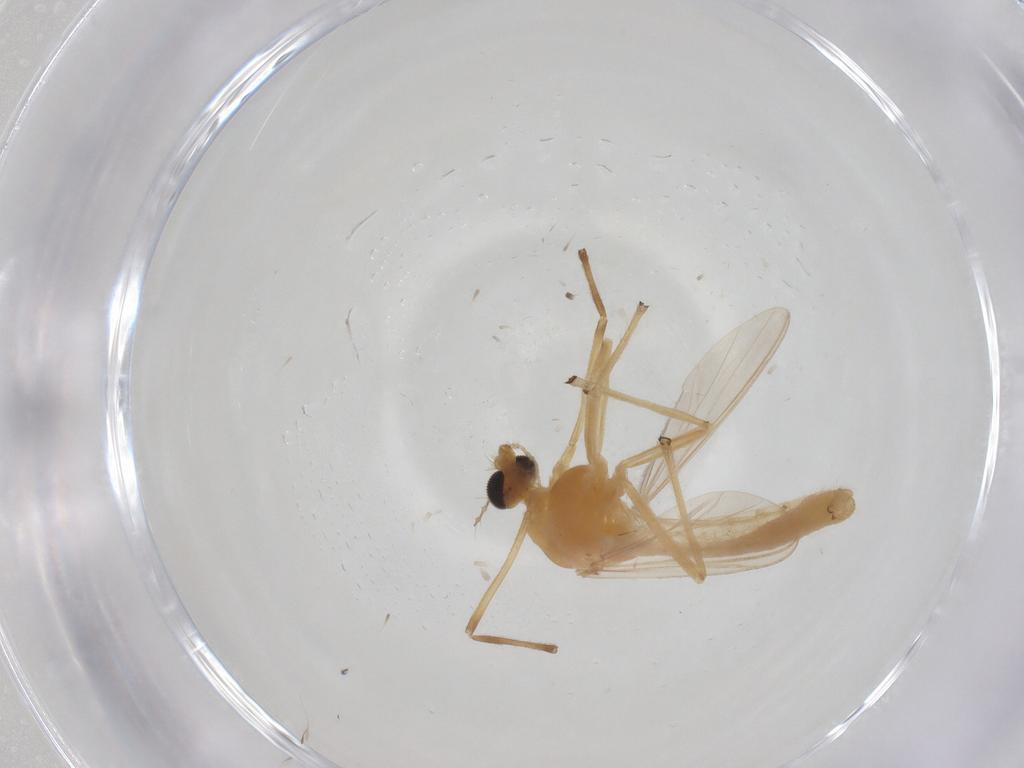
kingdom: Animalia
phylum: Arthropoda
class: Insecta
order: Diptera
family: Chironomidae
